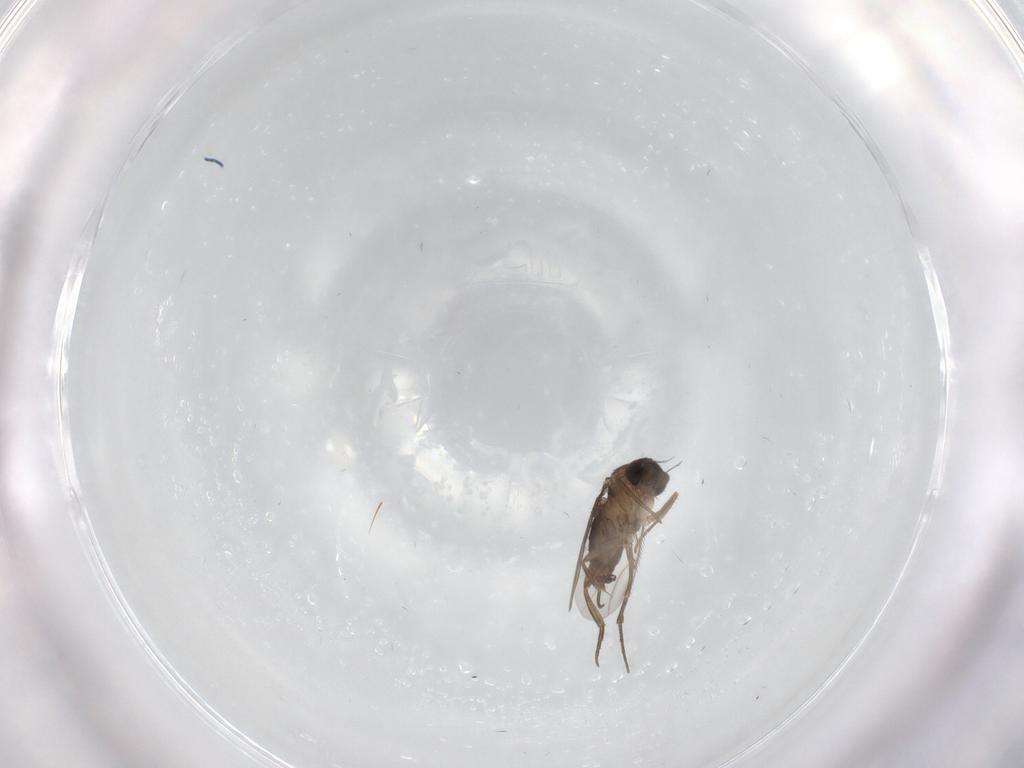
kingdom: Animalia
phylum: Arthropoda
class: Insecta
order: Diptera
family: Phoridae
